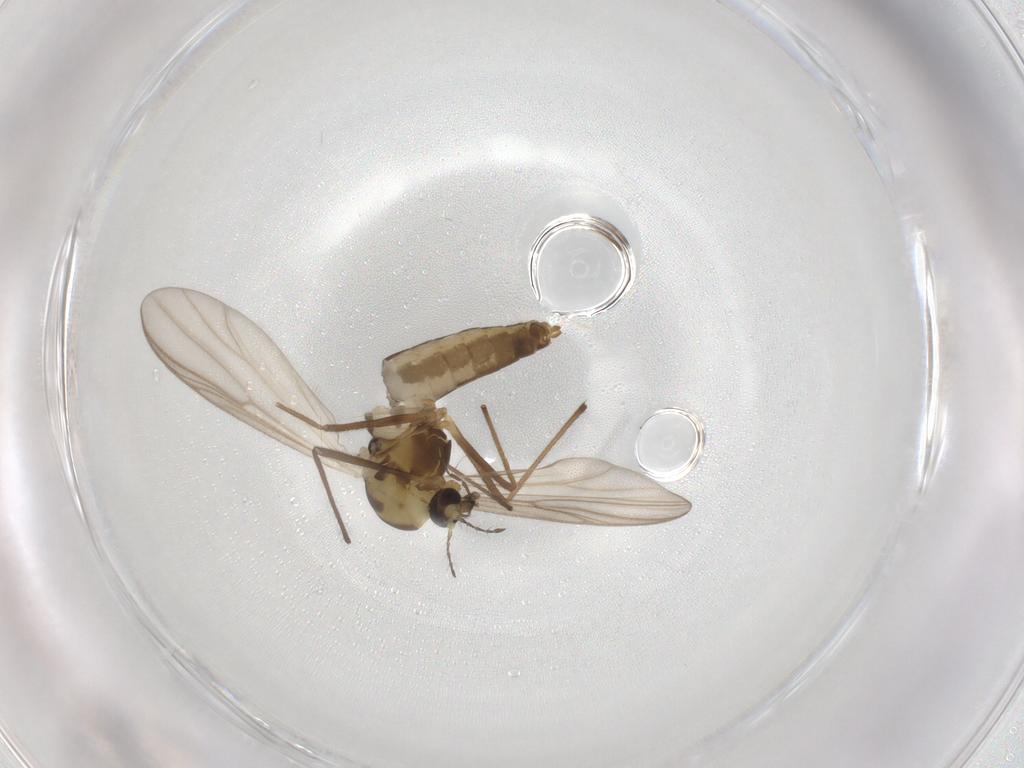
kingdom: Animalia
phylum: Arthropoda
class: Insecta
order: Diptera
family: Chironomidae
